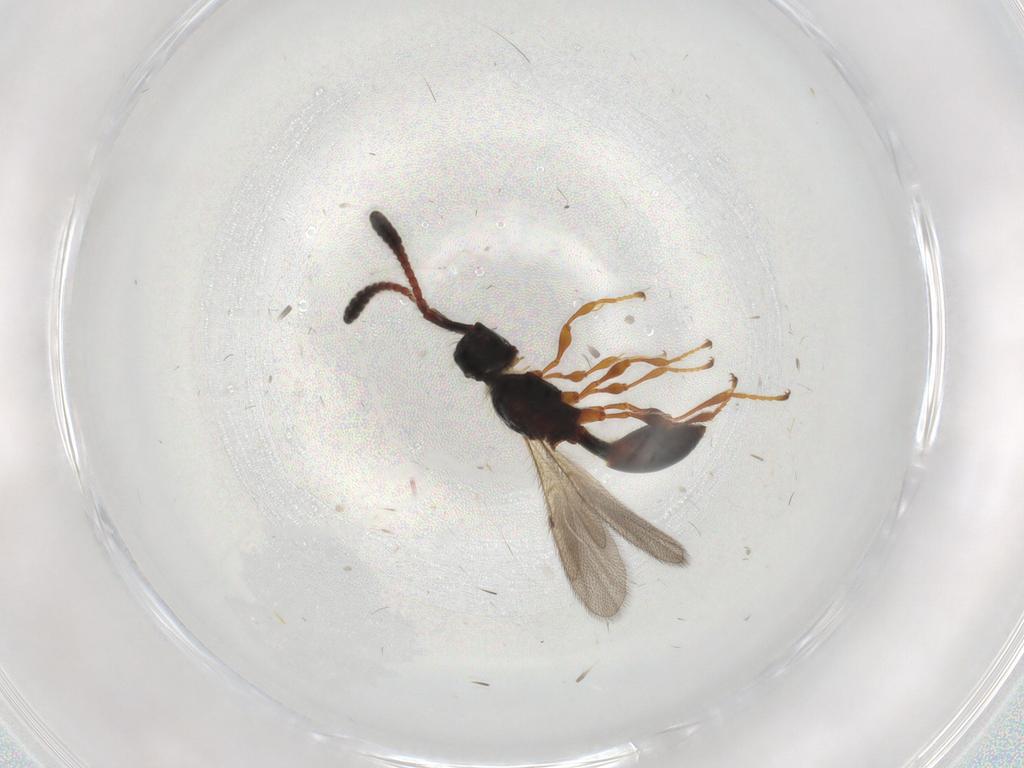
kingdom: Animalia
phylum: Arthropoda
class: Insecta
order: Hymenoptera
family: Diapriidae
